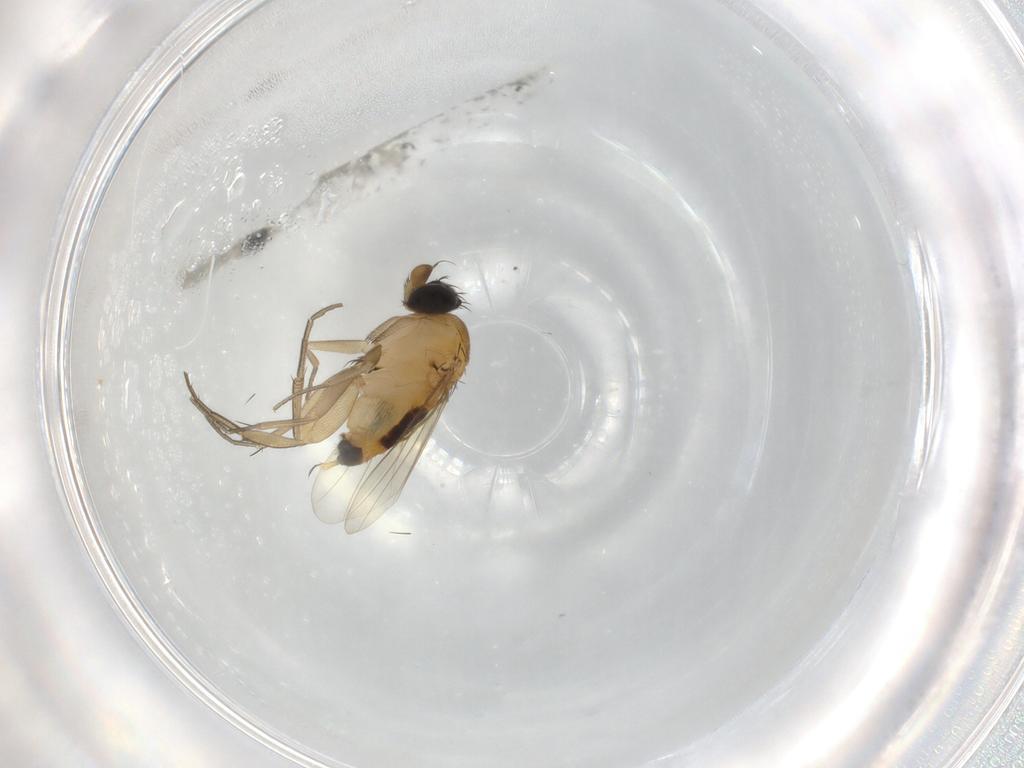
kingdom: Animalia
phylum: Arthropoda
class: Insecta
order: Diptera
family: Phoridae
